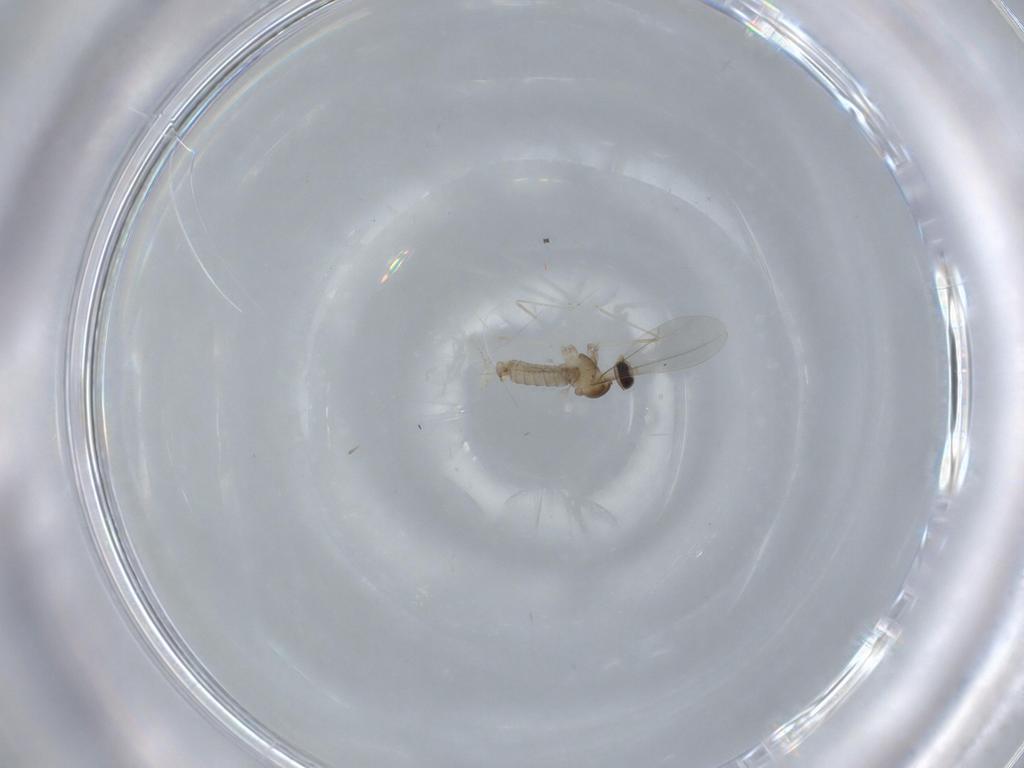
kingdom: Animalia
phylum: Arthropoda
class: Insecta
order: Diptera
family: Cecidomyiidae
